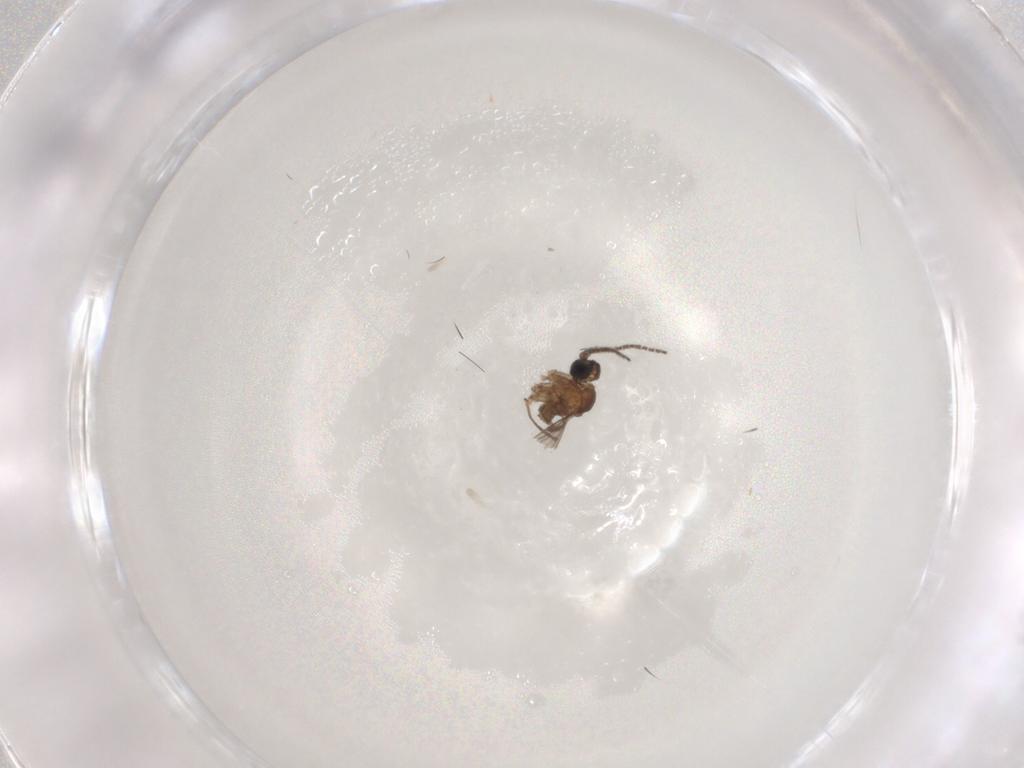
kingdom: Animalia
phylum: Arthropoda
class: Insecta
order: Diptera
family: Sciaridae
